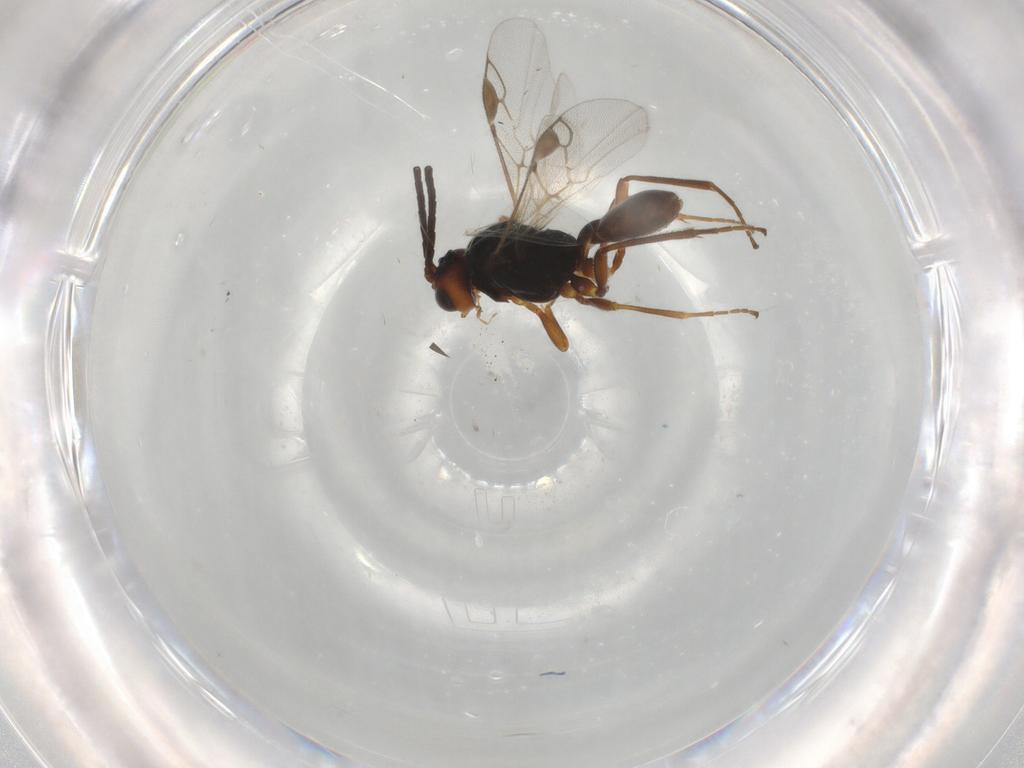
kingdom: Animalia
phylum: Arthropoda
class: Insecta
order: Hymenoptera
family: Braconidae
